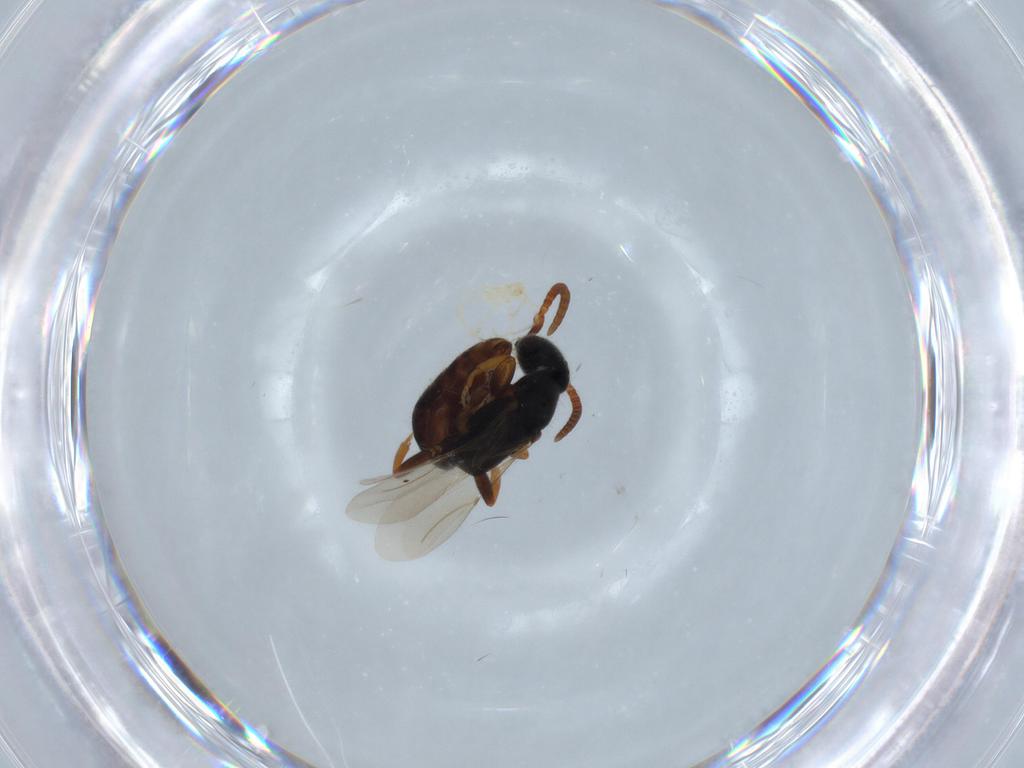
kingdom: Animalia
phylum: Arthropoda
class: Insecta
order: Hymenoptera
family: Bethylidae
